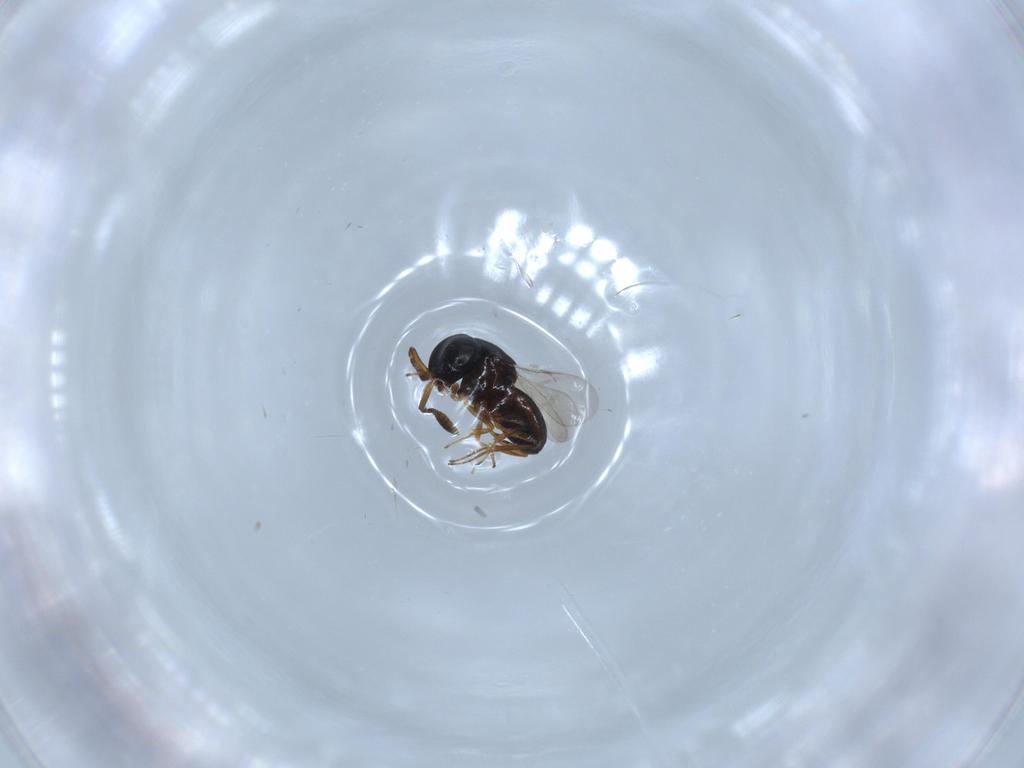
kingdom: Animalia
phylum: Arthropoda
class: Insecta
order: Hymenoptera
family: Scelionidae
